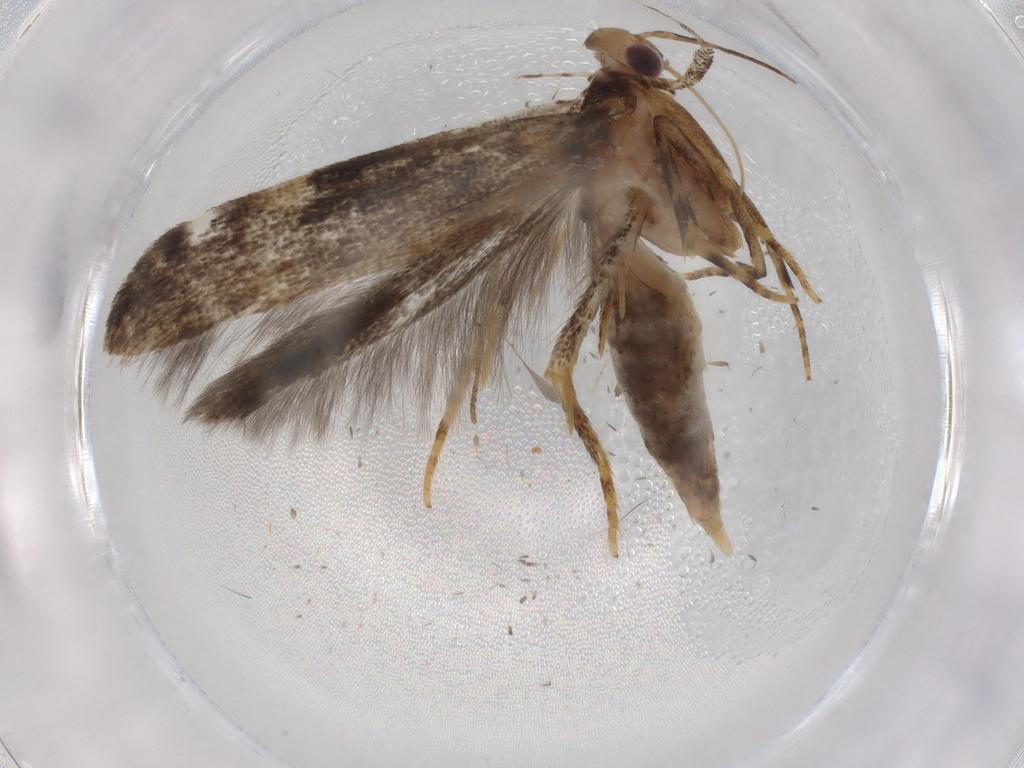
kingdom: Animalia
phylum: Arthropoda
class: Insecta
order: Lepidoptera
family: Gelechiidae
